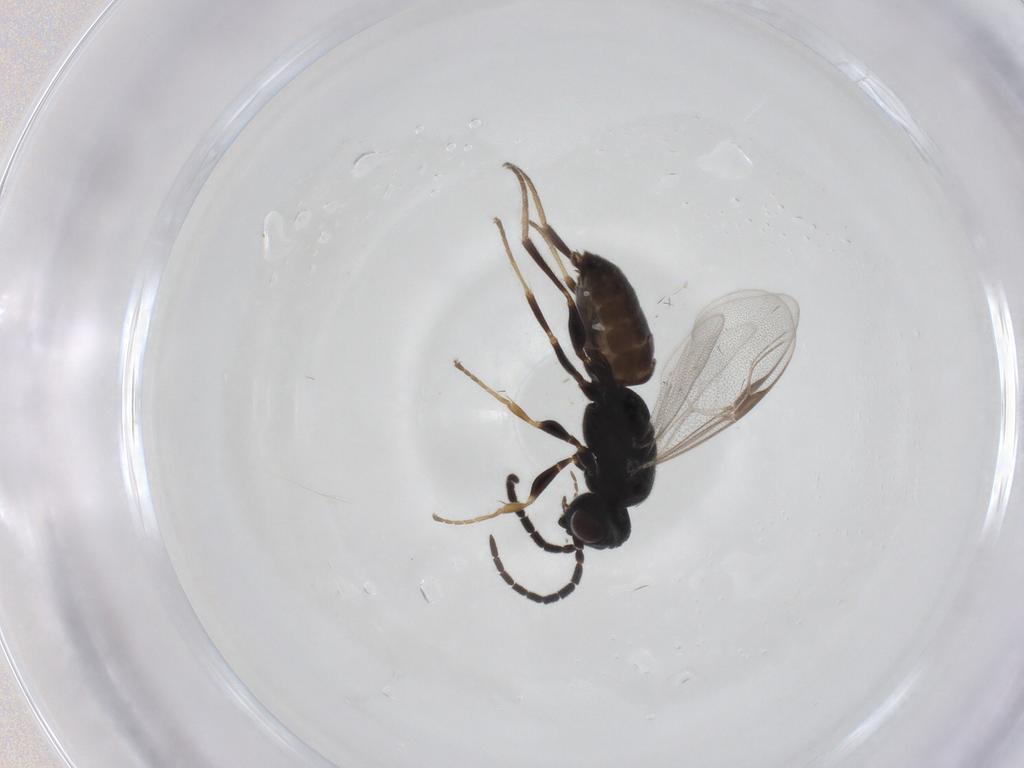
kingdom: Animalia
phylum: Arthropoda
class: Insecta
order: Hymenoptera
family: Dryinidae
